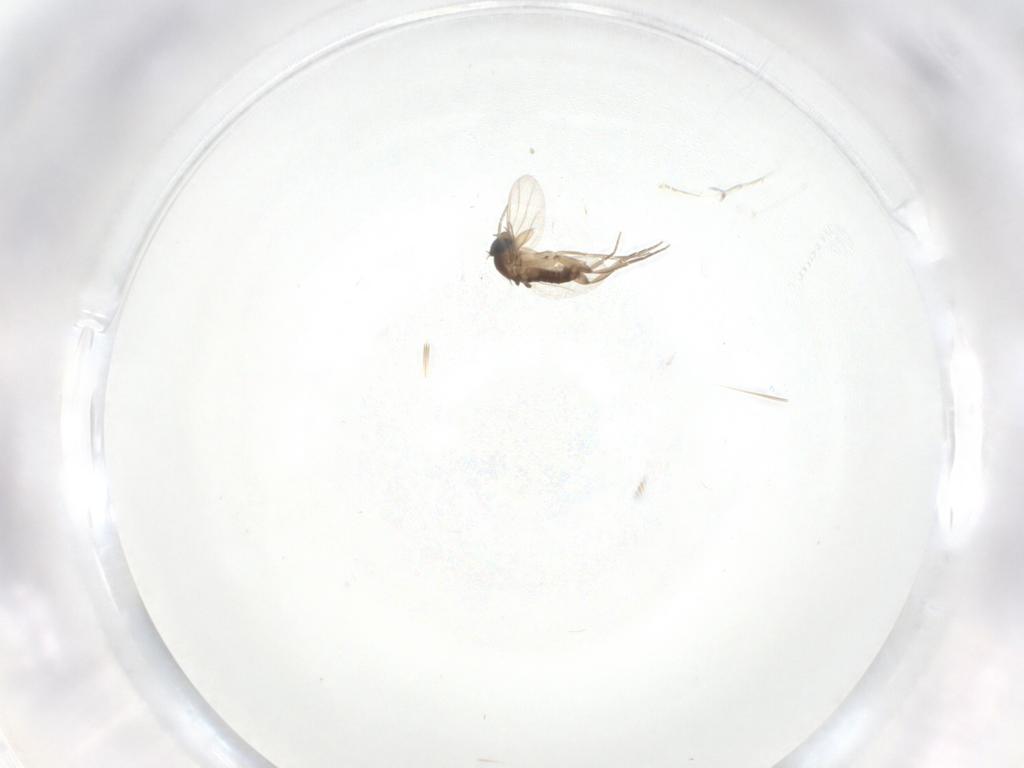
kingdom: Animalia
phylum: Arthropoda
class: Insecta
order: Diptera
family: Phoridae
